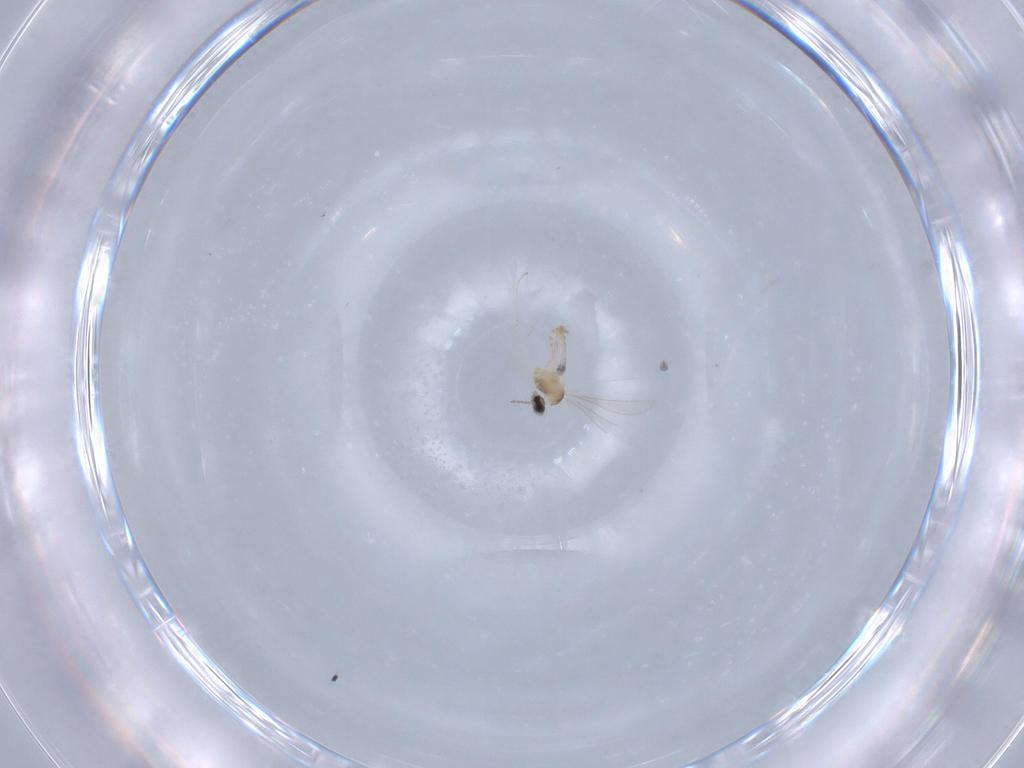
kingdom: Animalia
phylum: Arthropoda
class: Insecta
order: Diptera
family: Cecidomyiidae
